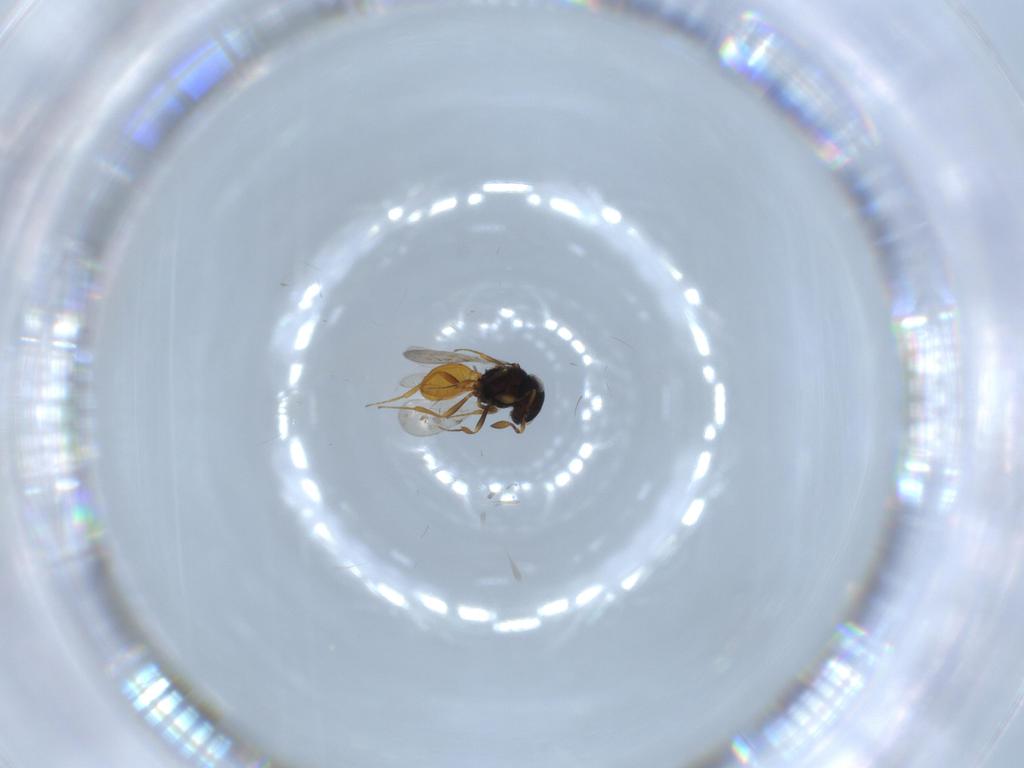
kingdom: Animalia
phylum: Arthropoda
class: Insecta
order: Hymenoptera
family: Scelionidae
